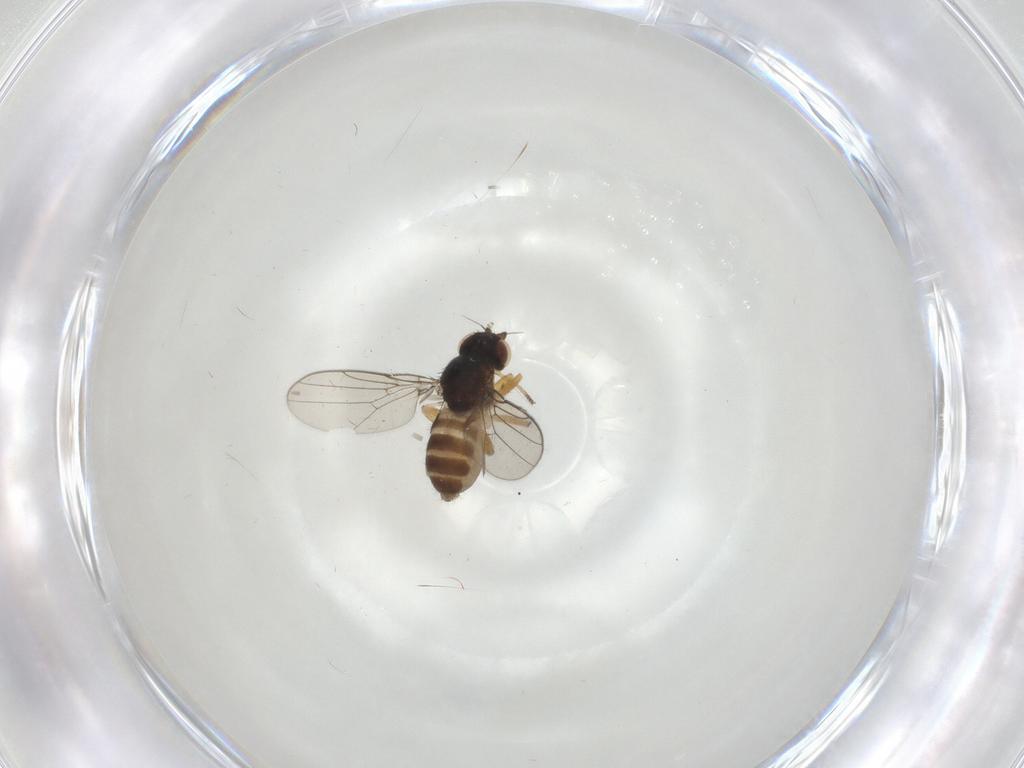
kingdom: Animalia
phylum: Arthropoda
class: Insecta
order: Diptera
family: Chloropidae
